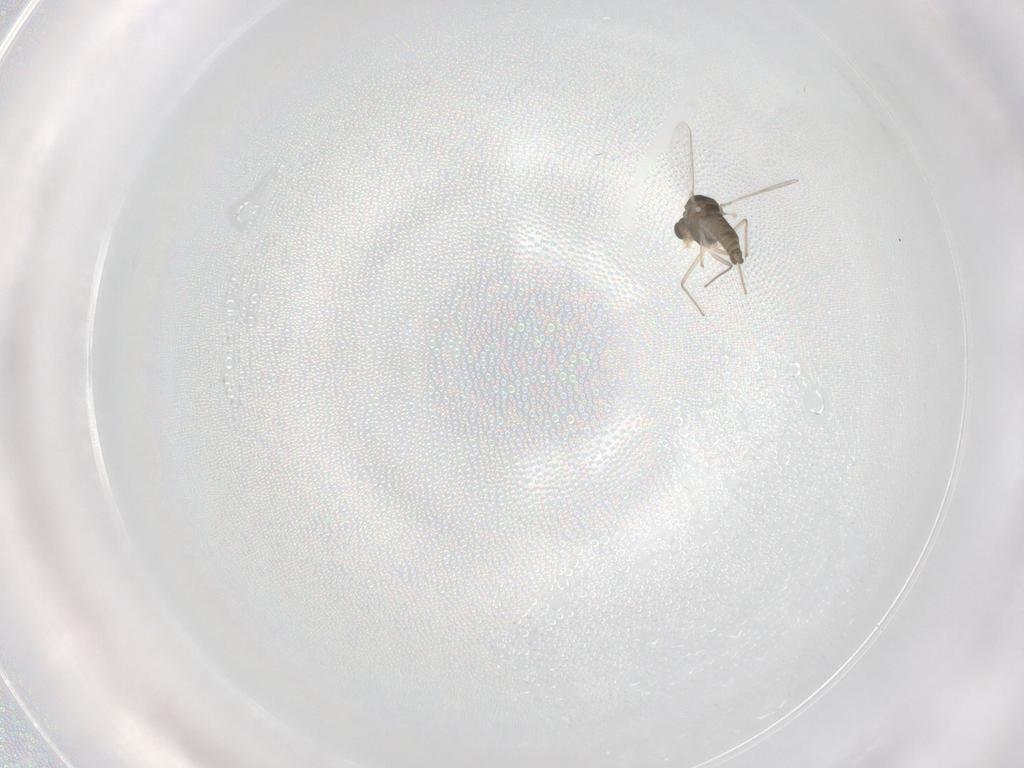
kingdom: Animalia
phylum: Arthropoda
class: Insecta
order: Diptera
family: Chironomidae
